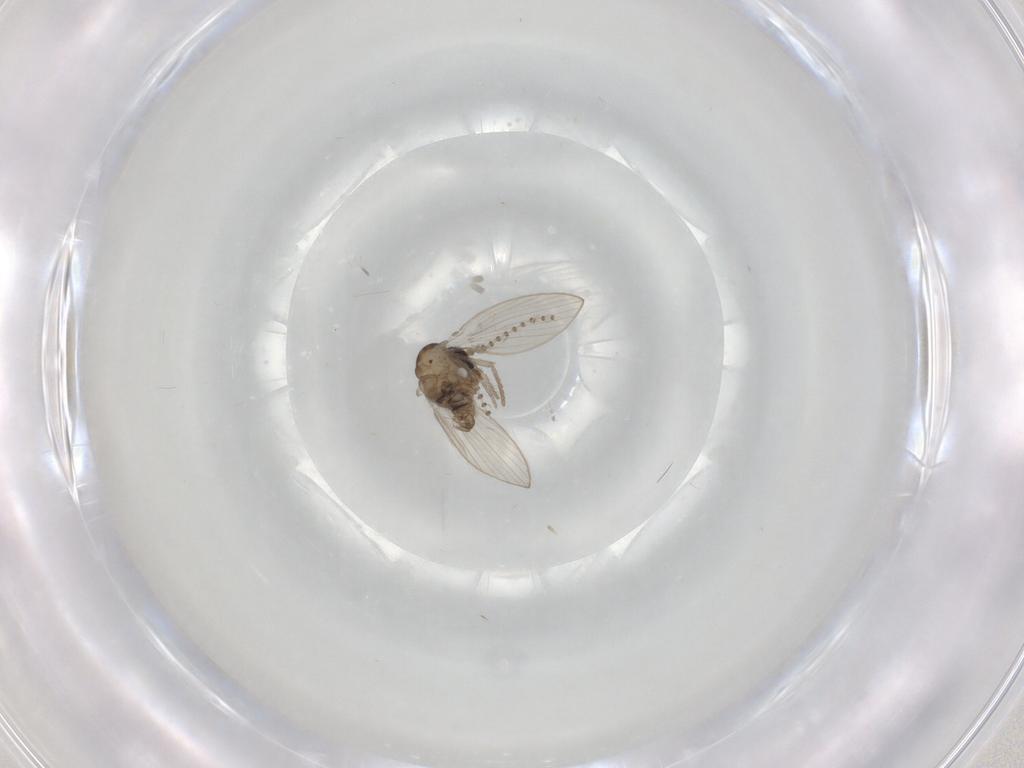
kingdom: Animalia
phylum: Arthropoda
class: Insecta
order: Diptera
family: Psychodidae
